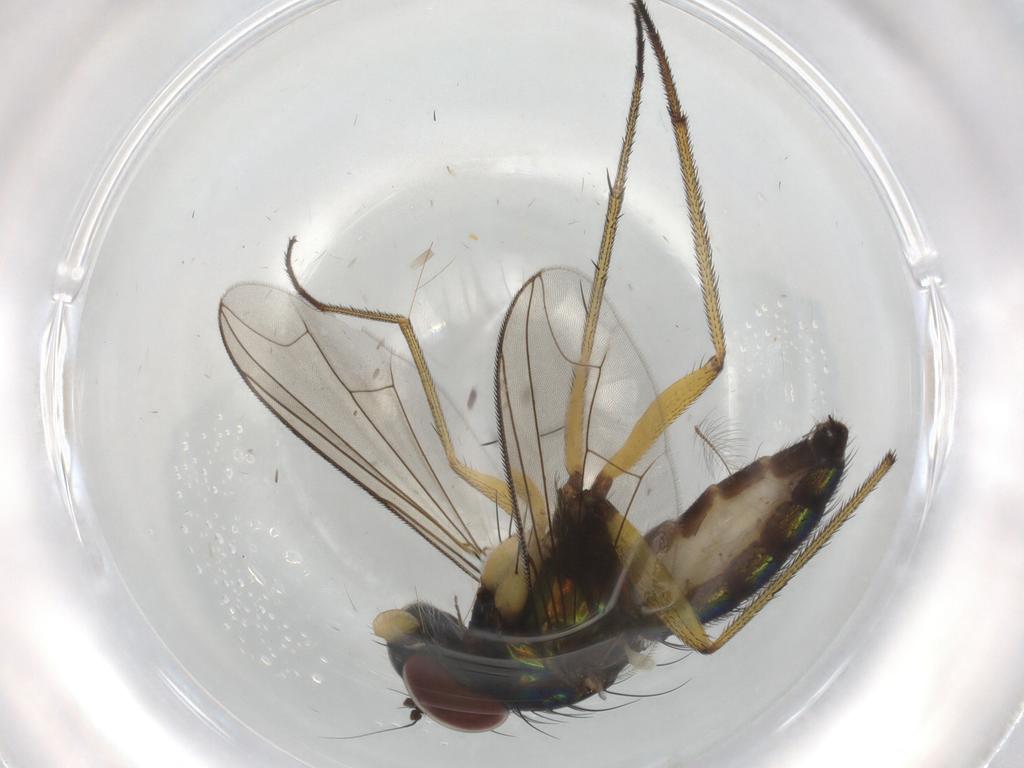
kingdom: Animalia
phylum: Arthropoda
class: Insecta
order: Diptera
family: Dolichopodidae
